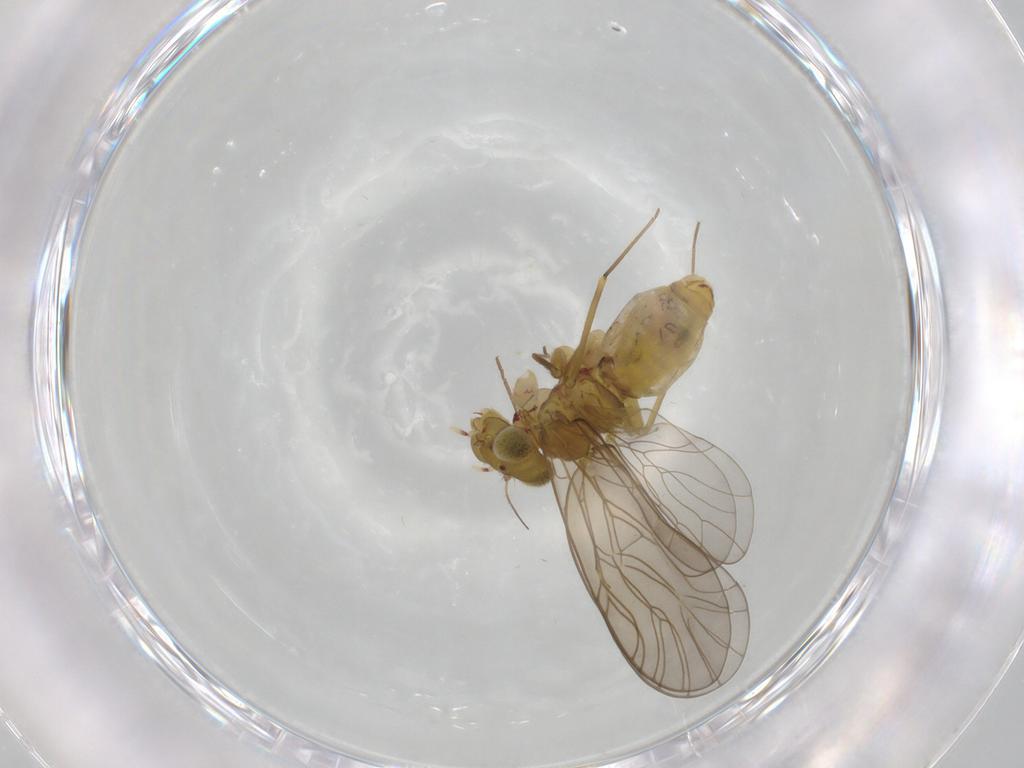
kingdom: Animalia
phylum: Arthropoda
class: Insecta
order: Psocodea
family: Philotarsidae
